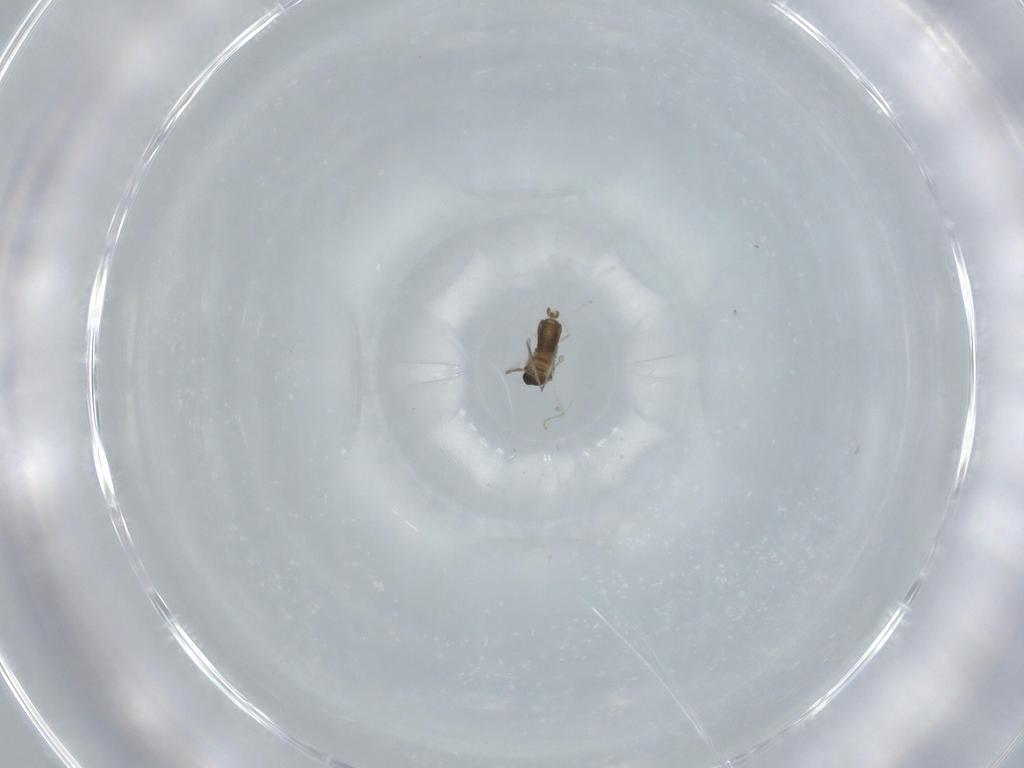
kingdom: Animalia
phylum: Arthropoda
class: Insecta
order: Diptera
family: Cecidomyiidae
